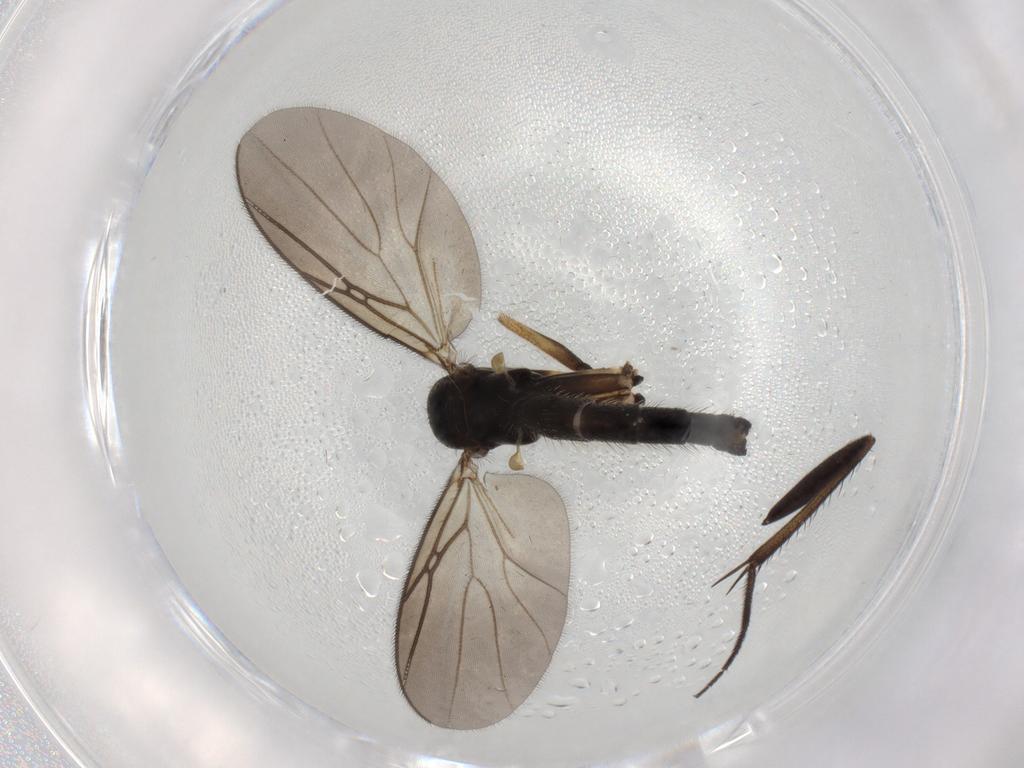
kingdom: Animalia
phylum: Arthropoda
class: Insecta
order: Diptera
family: Mycetophilidae
